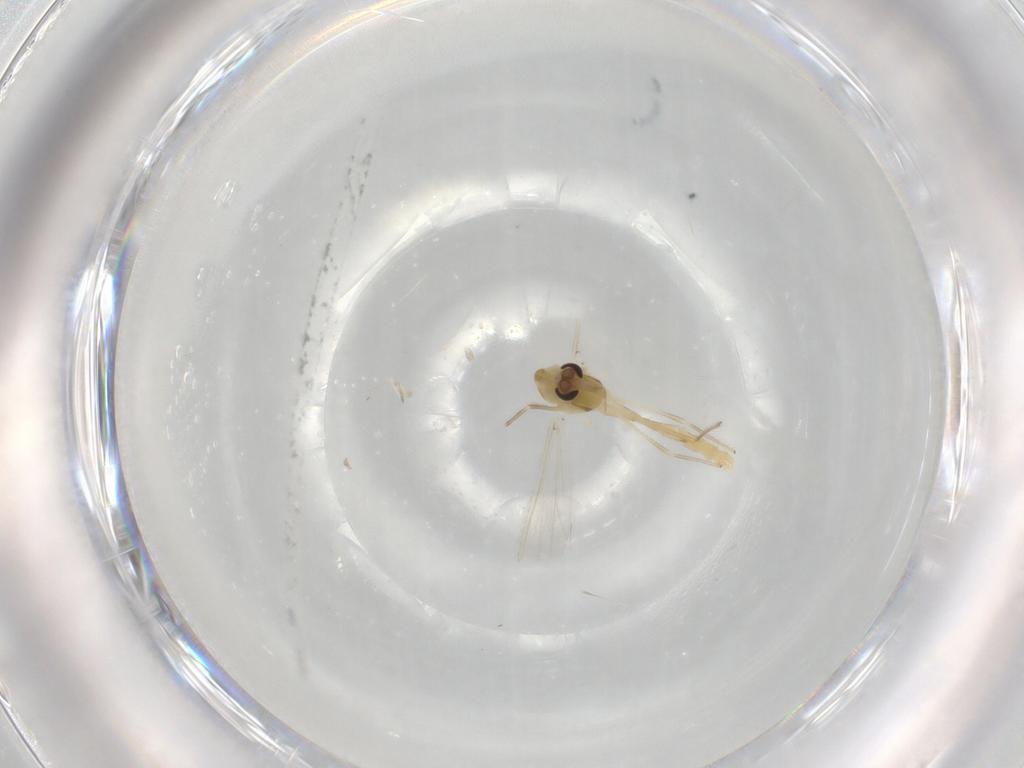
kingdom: Animalia
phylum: Arthropoda
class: Insecta
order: Diptera
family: Chironomidae
